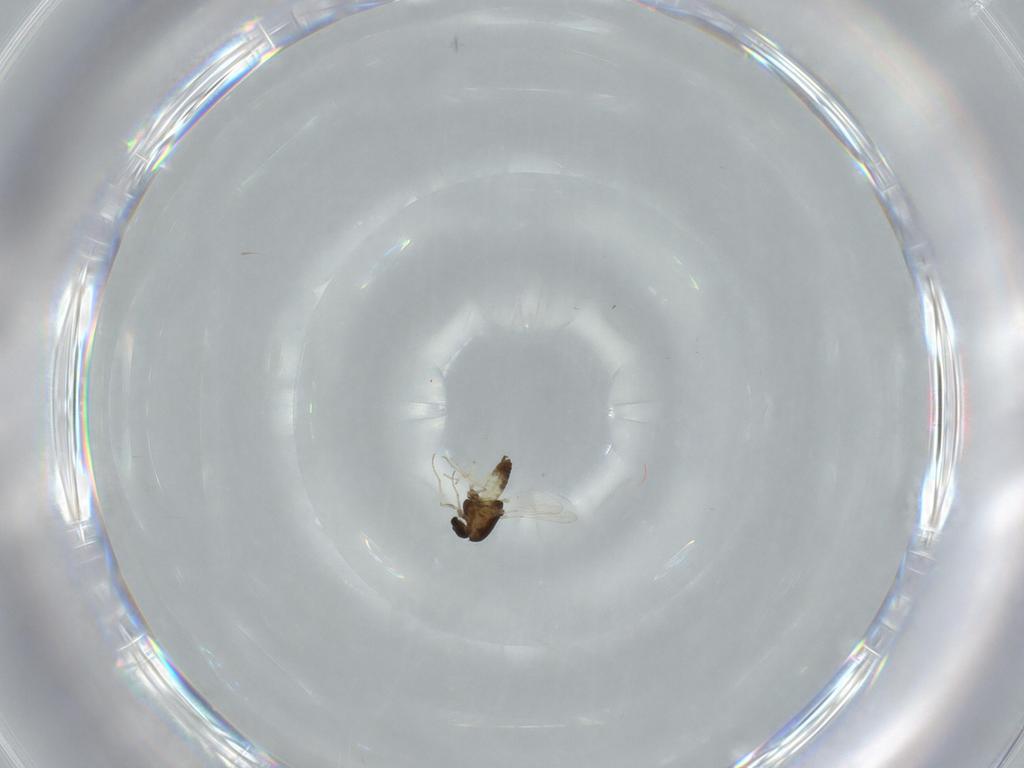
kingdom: Animalia
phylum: Arthropoda
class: Insecta
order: Diptera
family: Chironomidae
